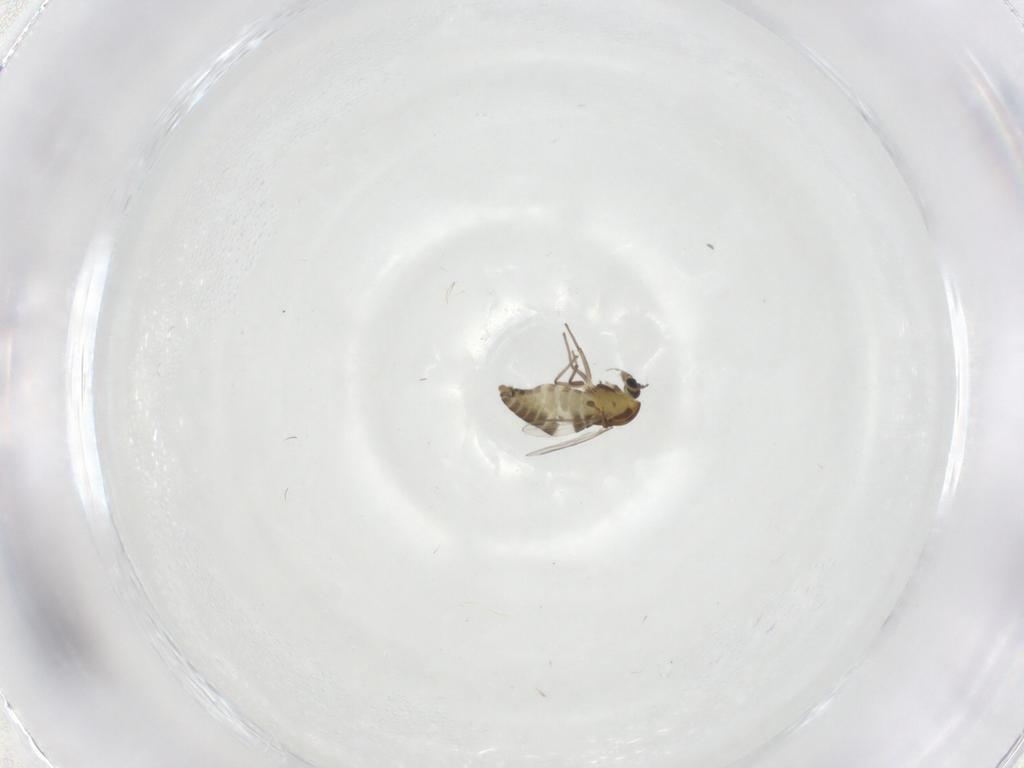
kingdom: Animalia
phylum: Arthropoda
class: Insecta
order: Diptera
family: Chironomidae
